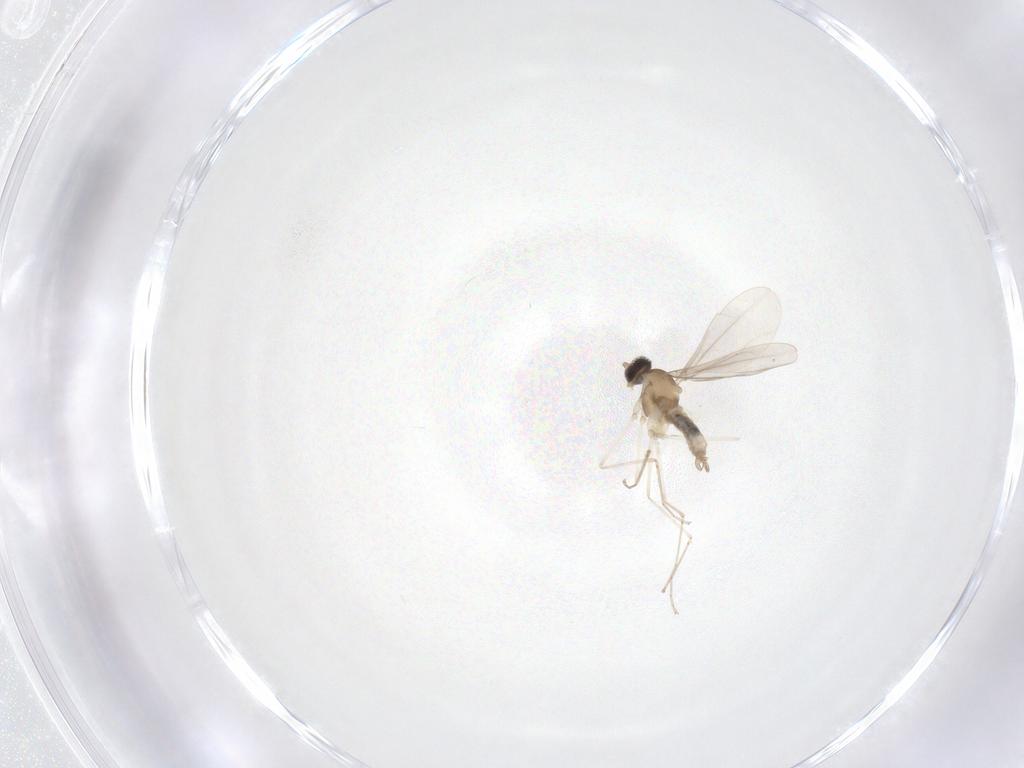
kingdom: Animalia
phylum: Arthropoda
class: Insecta
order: Diptera
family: Cecidomyiidae
